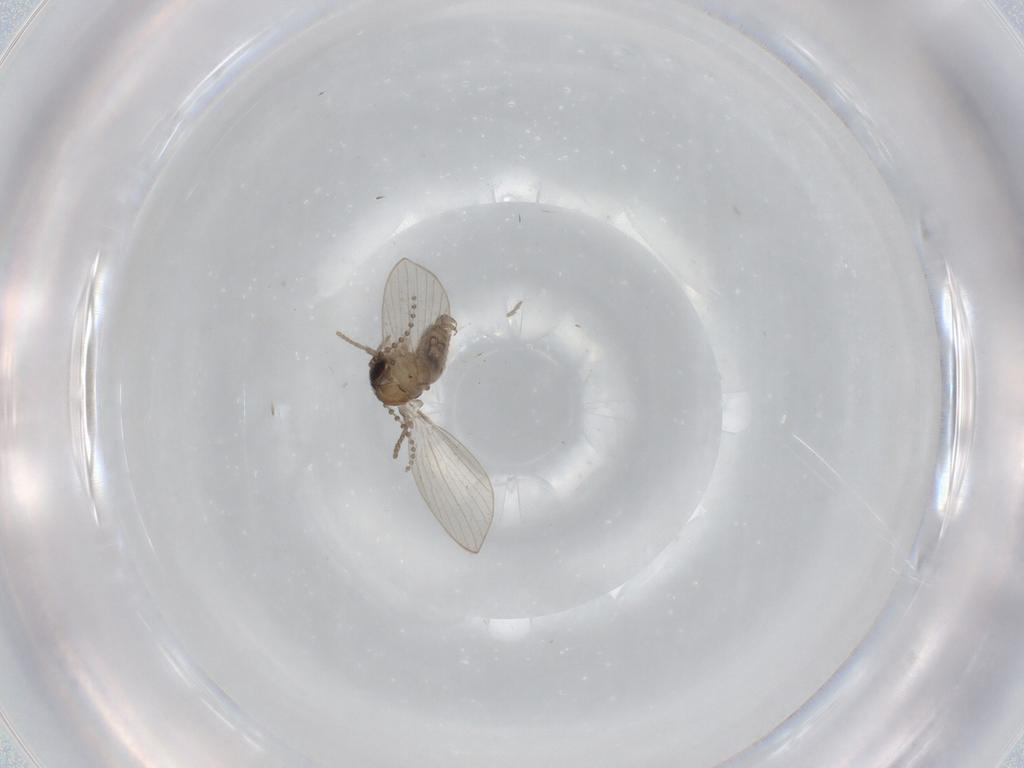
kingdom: Animalia
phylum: Arthropoda
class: Insecta
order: Diptera
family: Psychodidae
